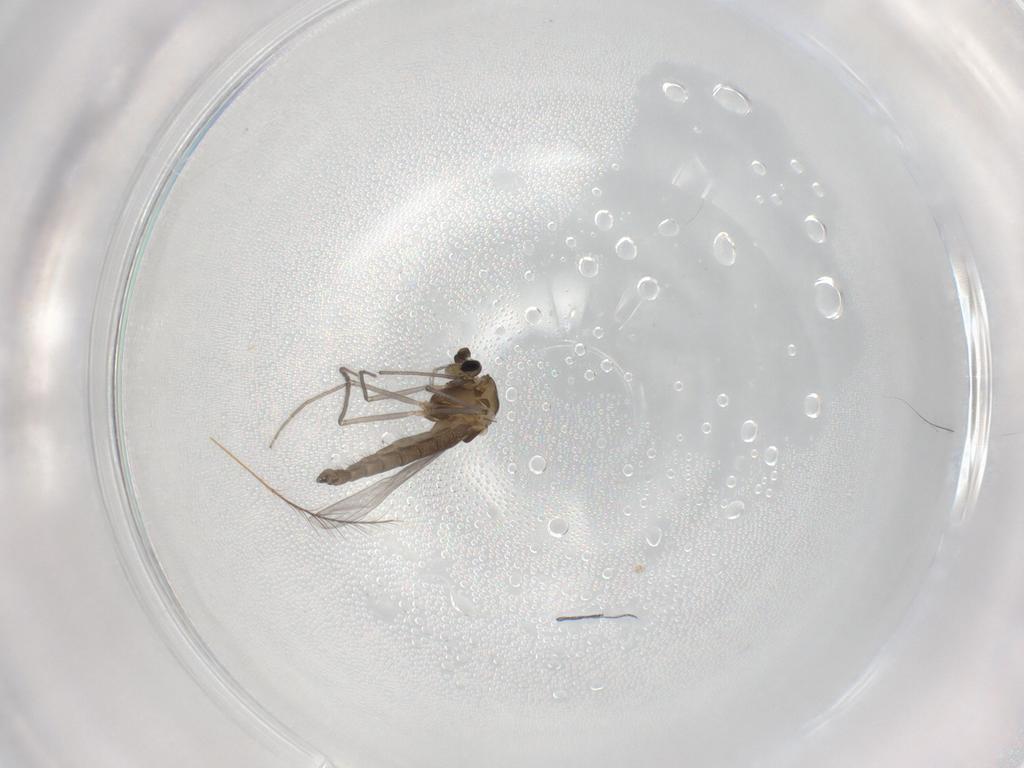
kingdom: Animalia
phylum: Arthropoda
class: Insecta
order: Diptera
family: Chironomidae
